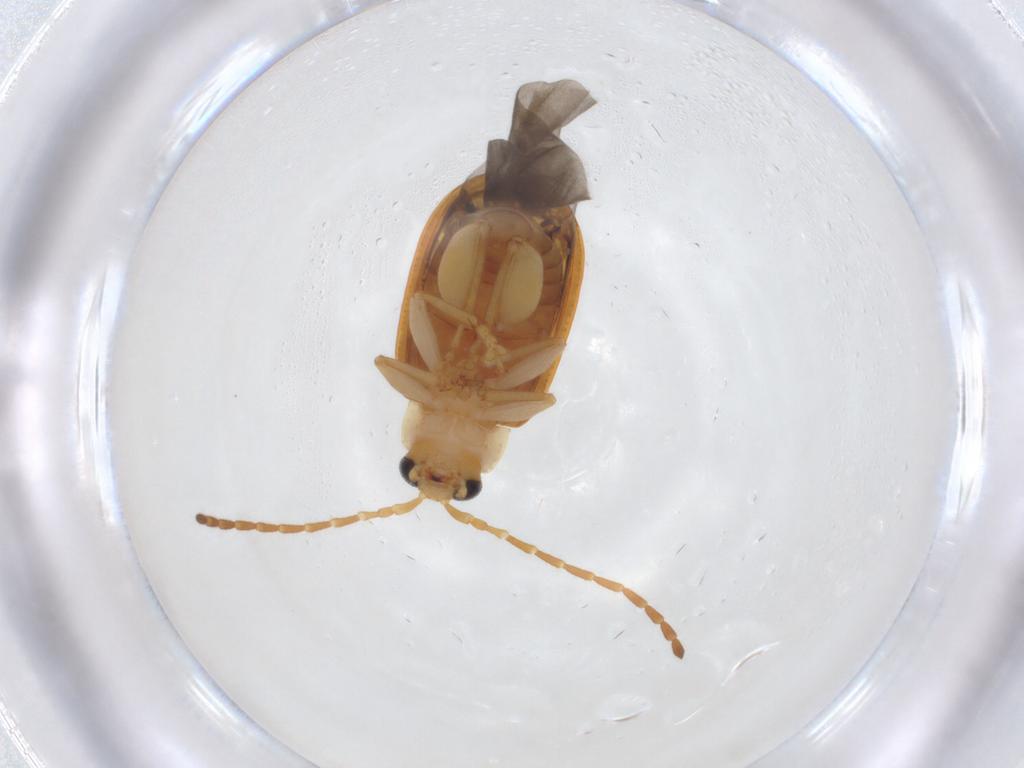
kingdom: Animalia
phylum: Arthropoda
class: Insecta
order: Coleoptera
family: Chrysomelidae
